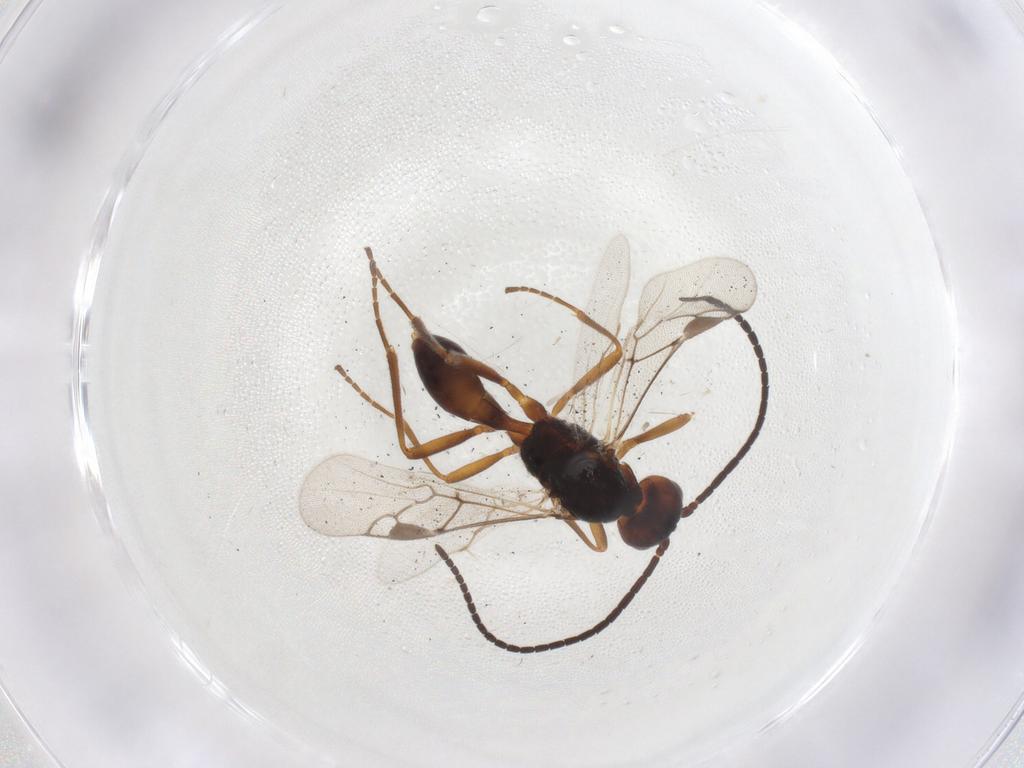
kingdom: Animalia
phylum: Arthropoda
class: Insecta
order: Hymenoptera
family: Braconidae
